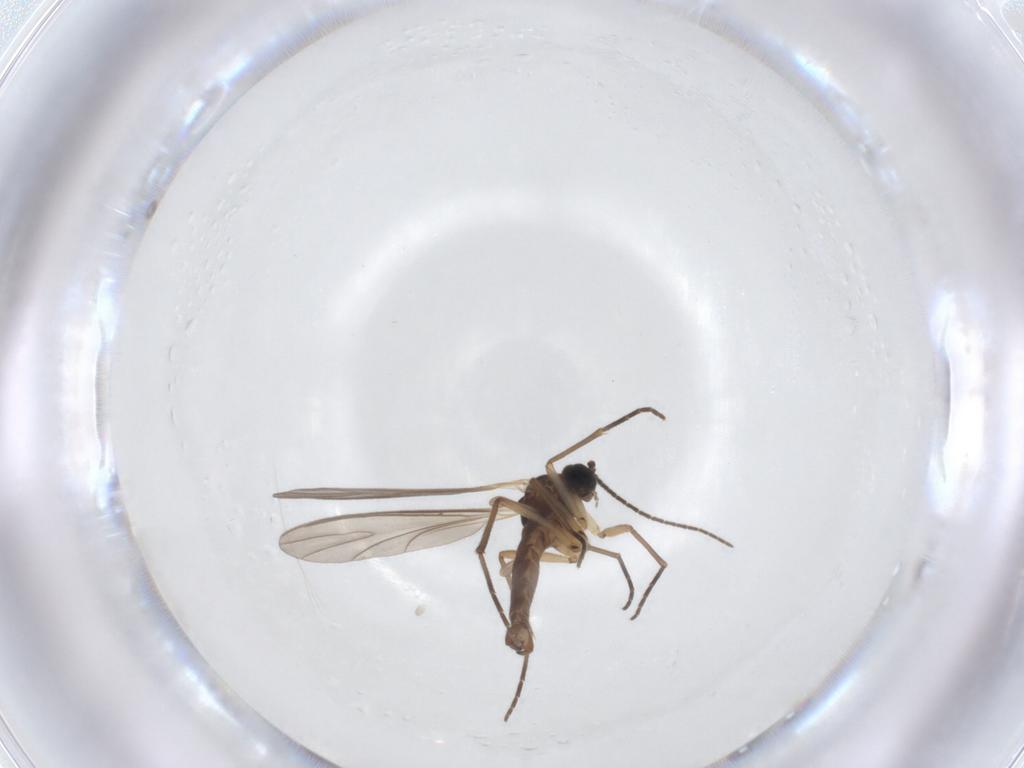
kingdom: Animalia
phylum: Arthropoda
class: Insecta
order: Diptera
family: Sciaridae
